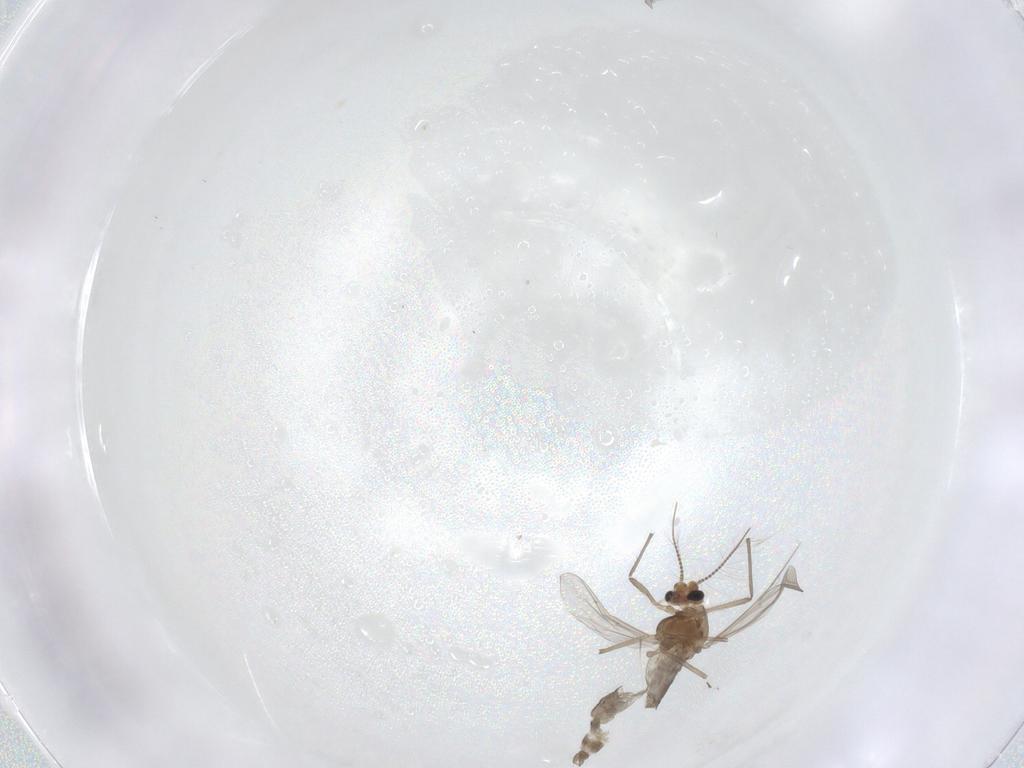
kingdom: Animalia
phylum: Arthropoda
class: Insecta
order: Diptera
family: Chironomidae
